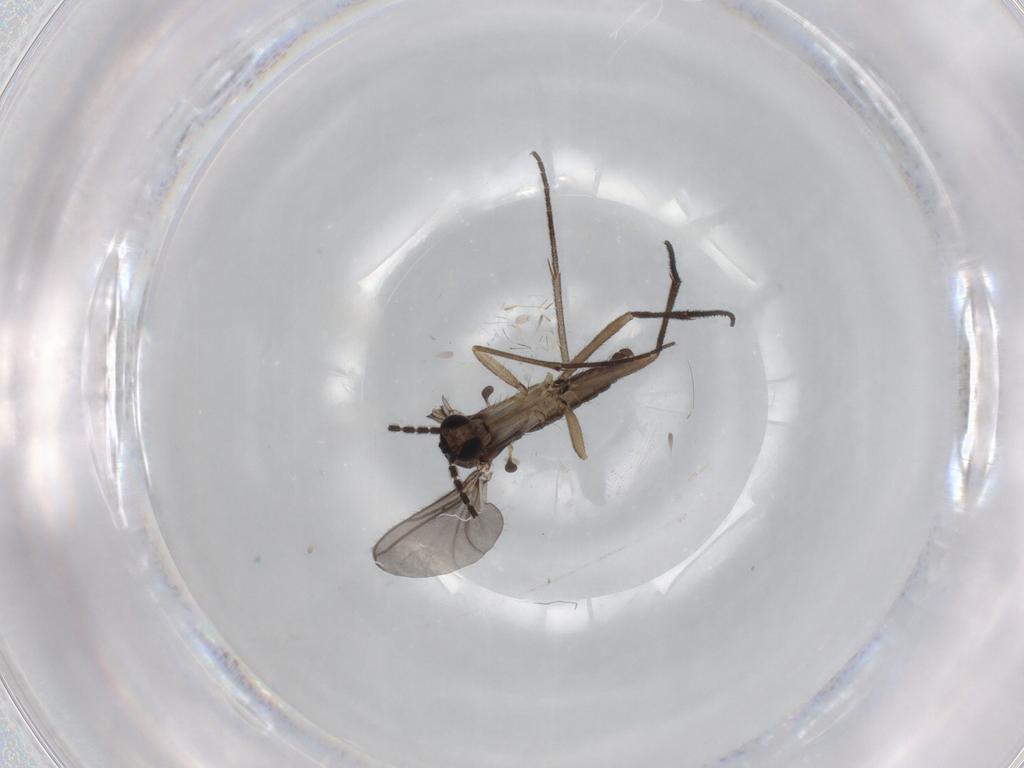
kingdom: Animalia
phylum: Arthropoda
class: Insecta
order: Diptera
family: Sciaridae
